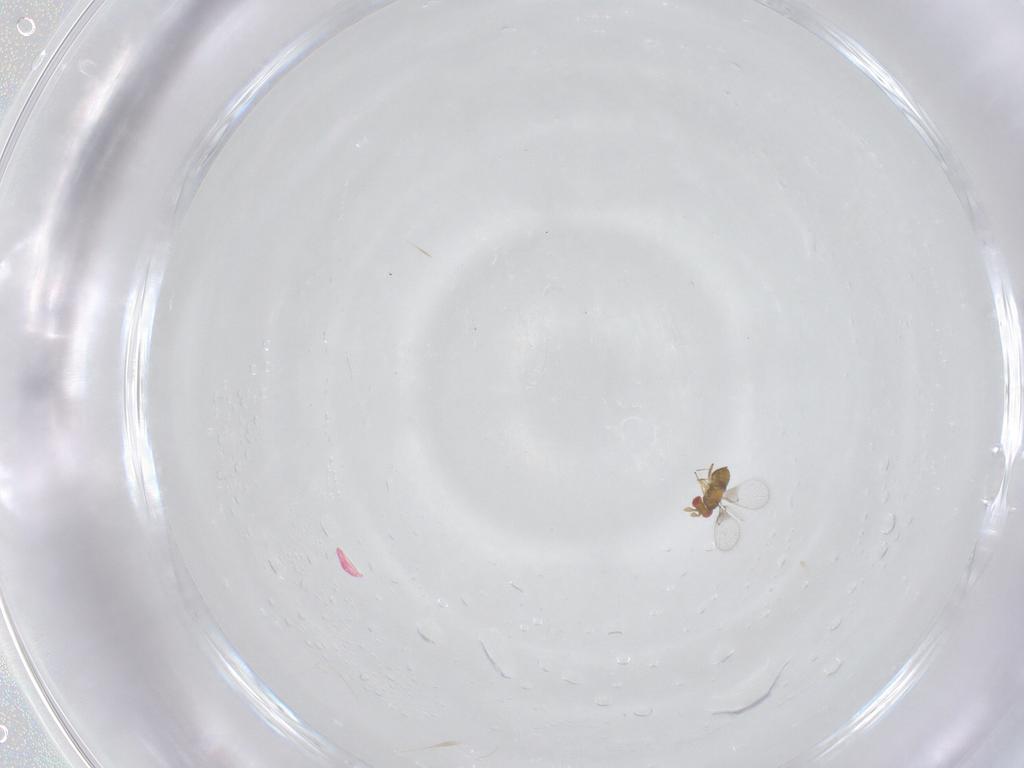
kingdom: Animalia
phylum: Arthropoda
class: Insecta
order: Hymenoptera
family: Trichogrammatidae
